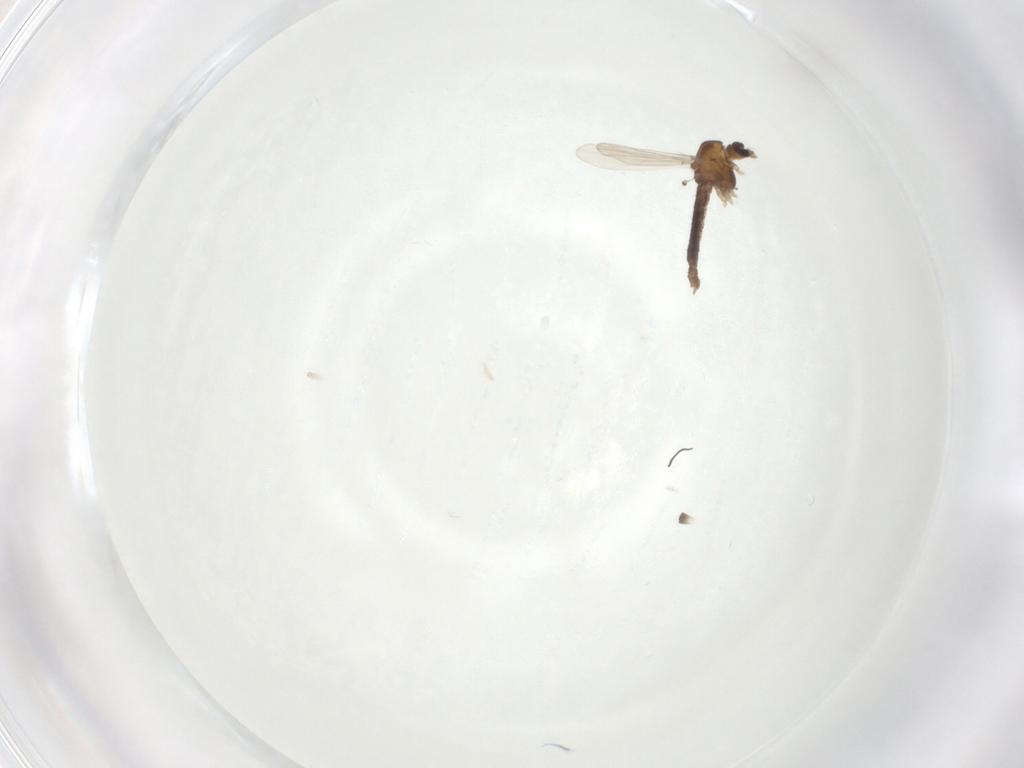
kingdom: Animalia
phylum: Arthropoda
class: Insecta
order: Diptera
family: Chironomidae
